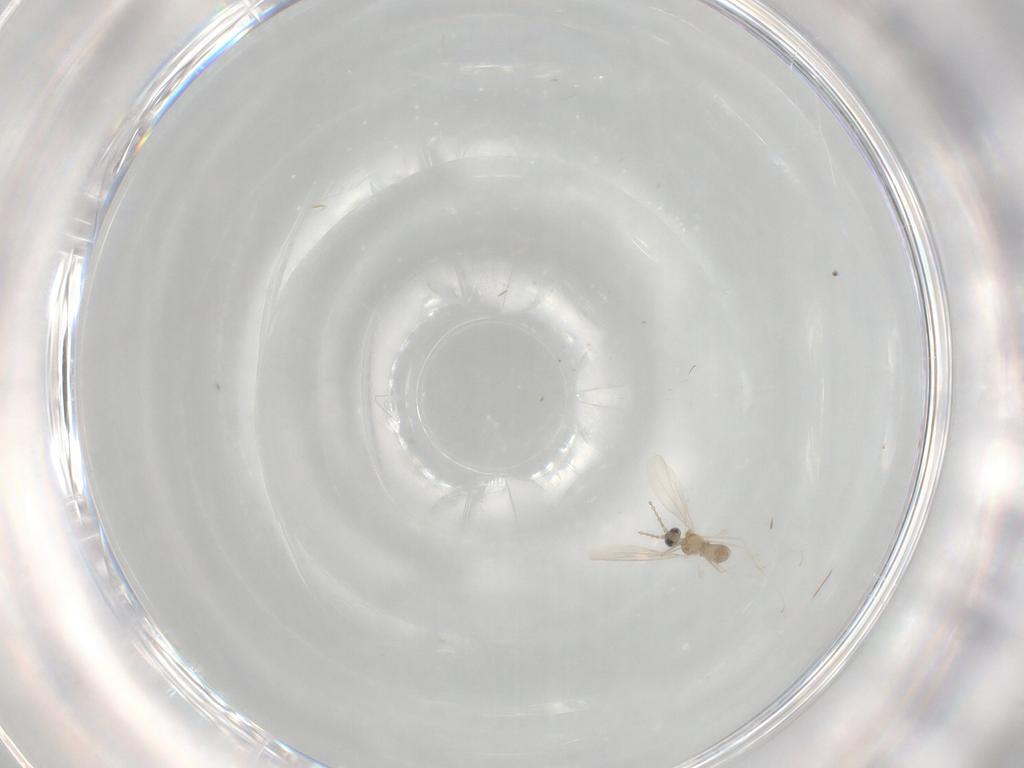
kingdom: Animalia
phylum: Arthropoda
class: Insecta
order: Diptera
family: Cecidomyiidae
